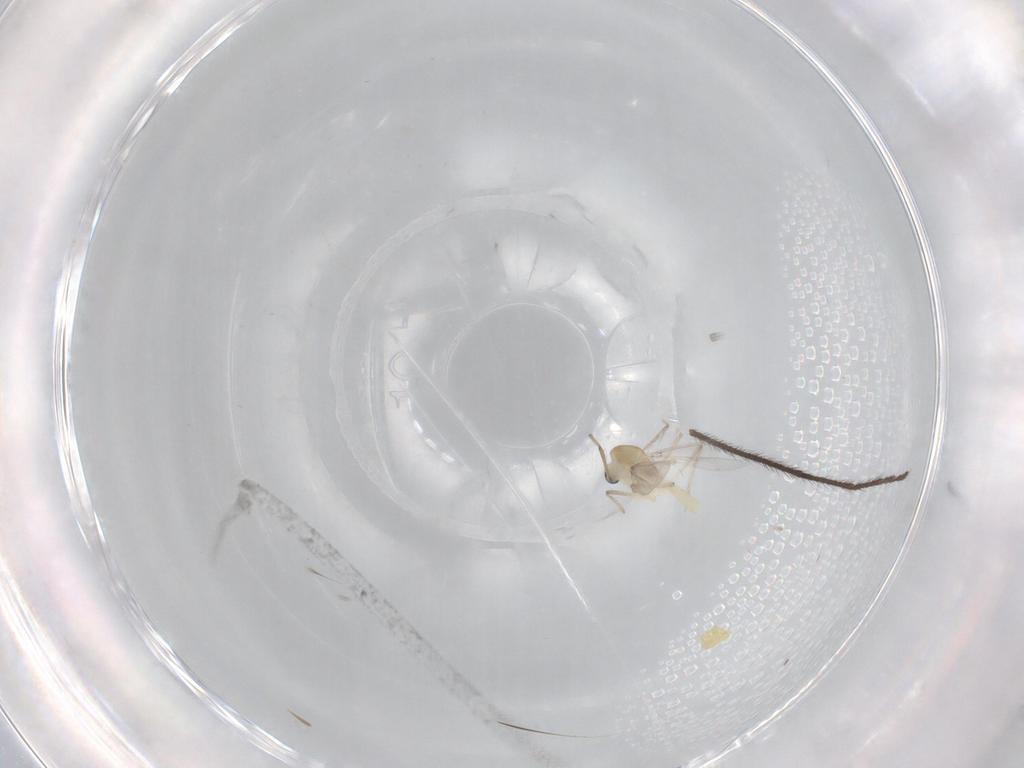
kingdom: Animalia
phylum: Arthropoda
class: Insecta
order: Diptera
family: Chironomidae
